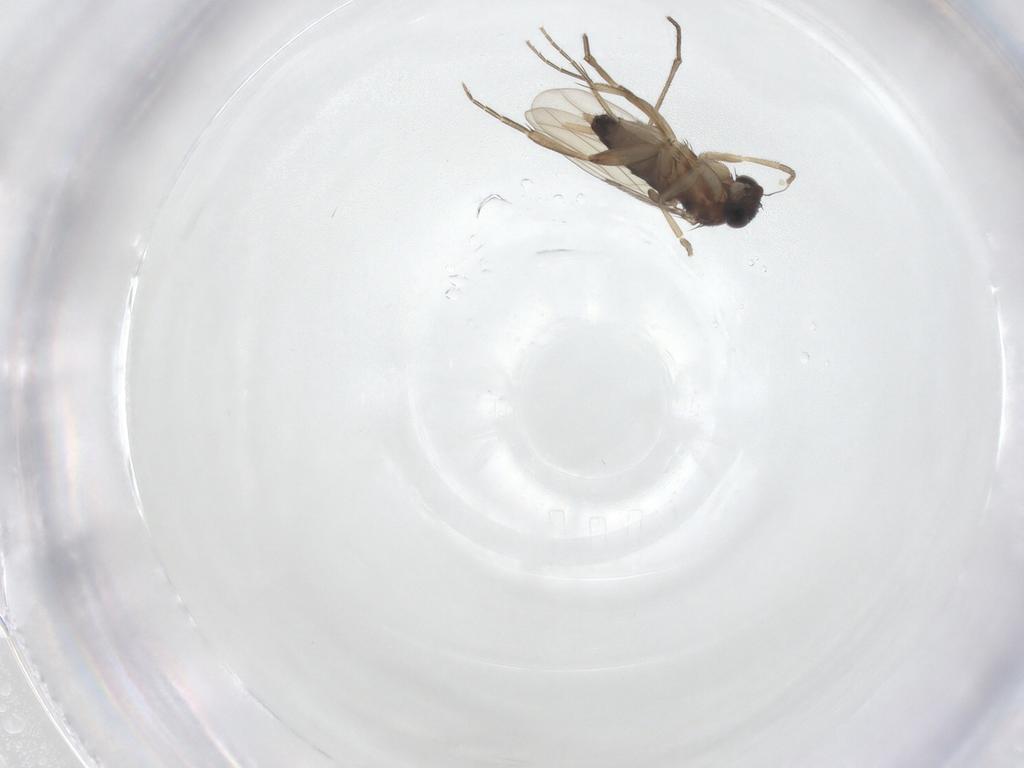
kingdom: Animalia
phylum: Arthropoda
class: Insecta
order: Diptera
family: Phoridae
